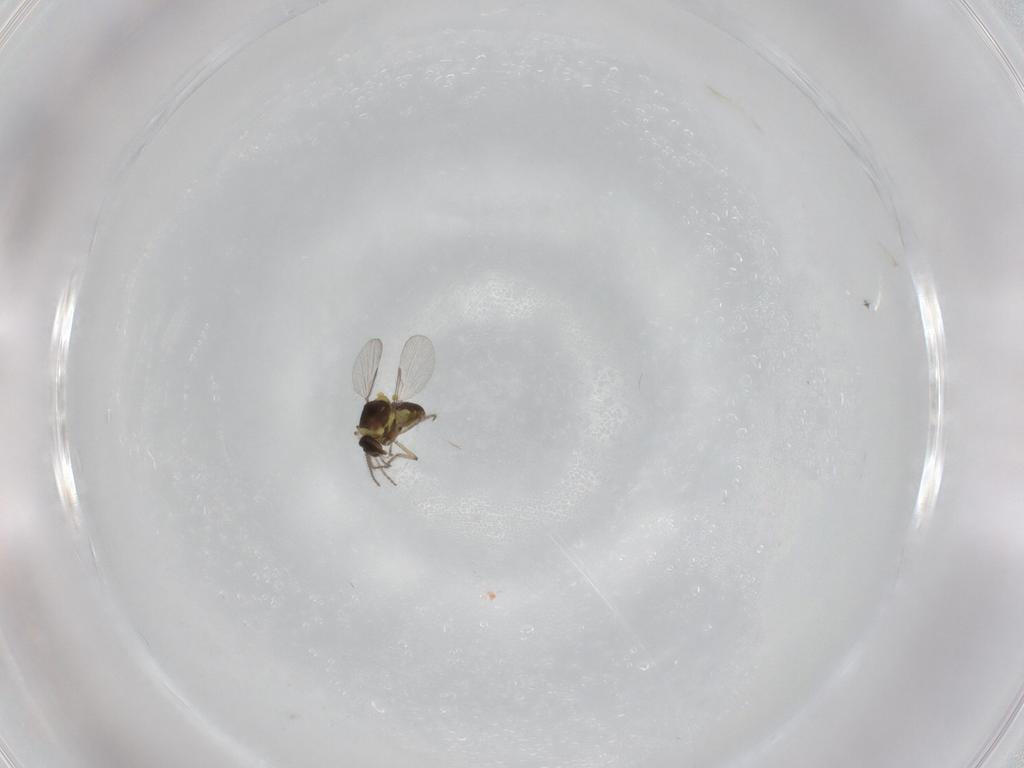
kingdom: Animalia
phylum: Arthropoda
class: Insecta
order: Diptera
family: Ceratopogonidae
